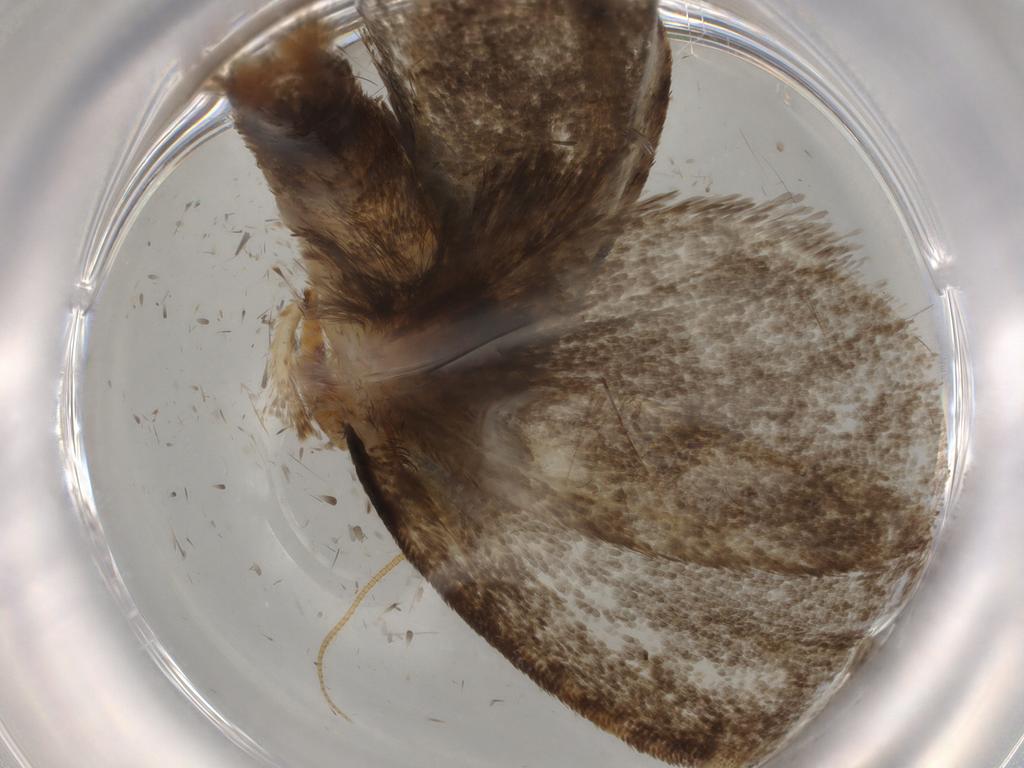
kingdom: Animalia
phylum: Arthropoda
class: Insecta
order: Lepidoptera
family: Tineidae
